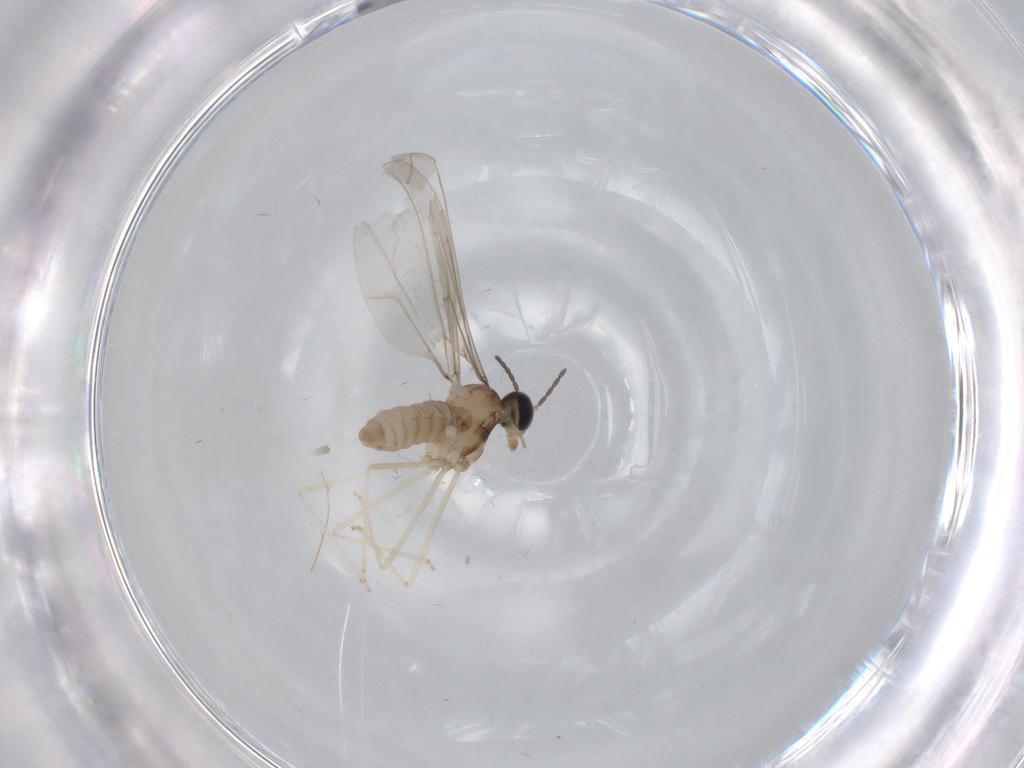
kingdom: Animalia
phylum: Arthropoda
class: Insecta
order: Diptera
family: Cecidomyiidae
